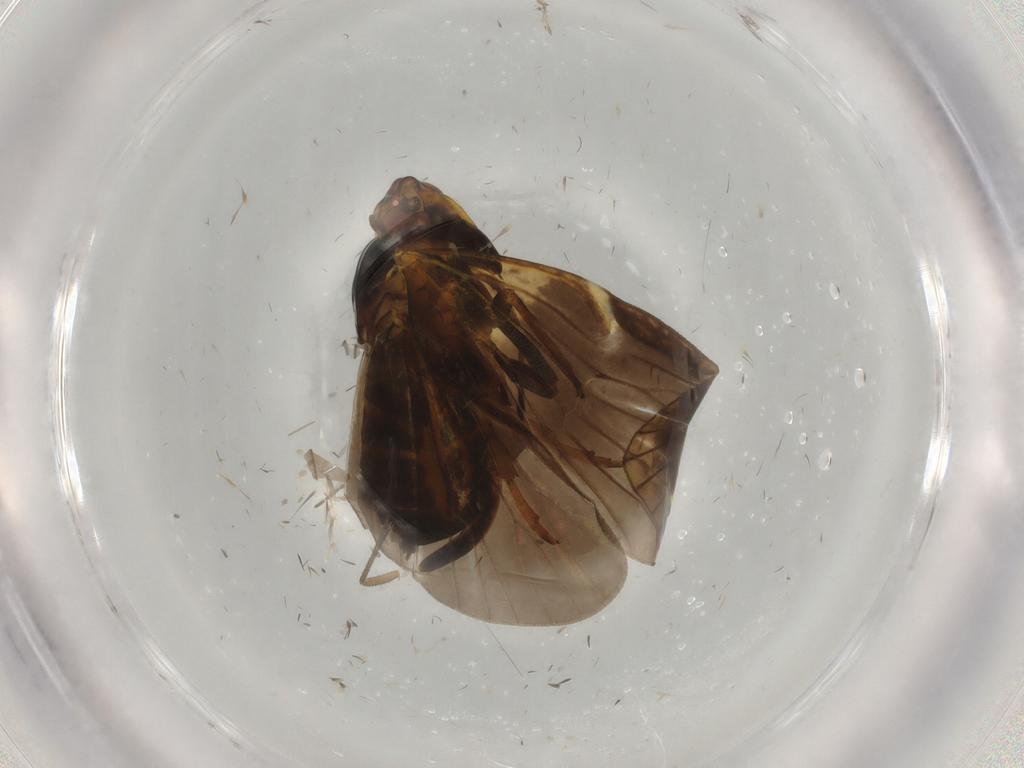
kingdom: Animalia
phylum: Arthropoda
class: Insecta
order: Hemiptera
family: Cixiidae
